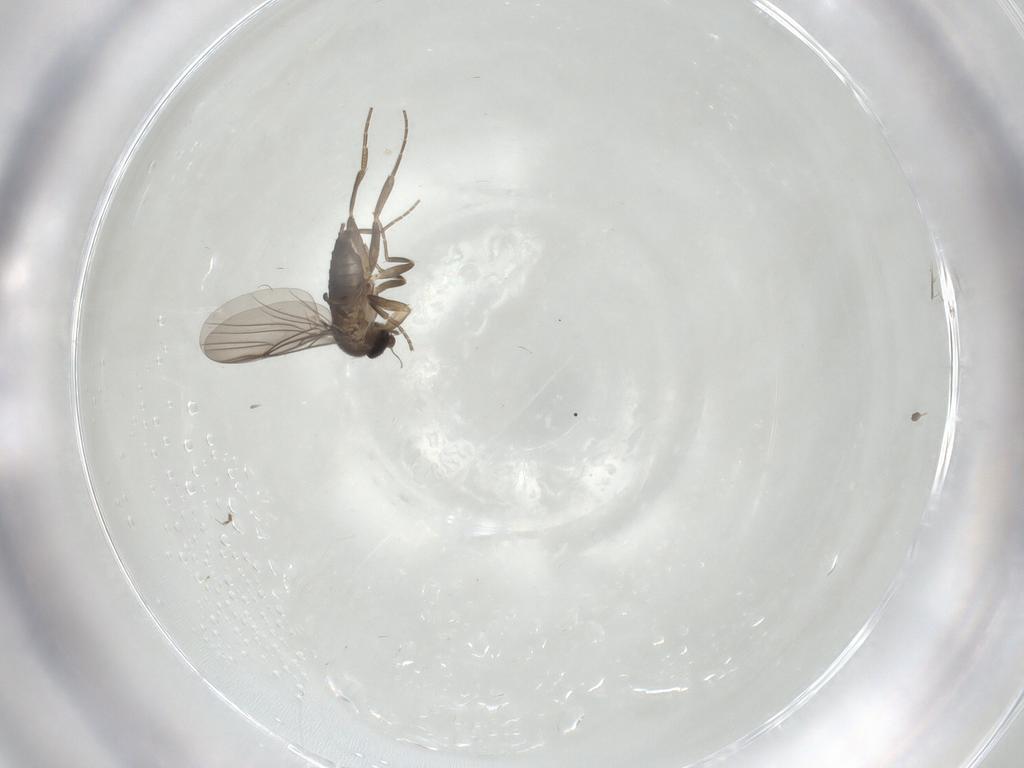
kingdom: Animalia
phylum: Arthropoda
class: Insecta
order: Diptera
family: Phoridae
